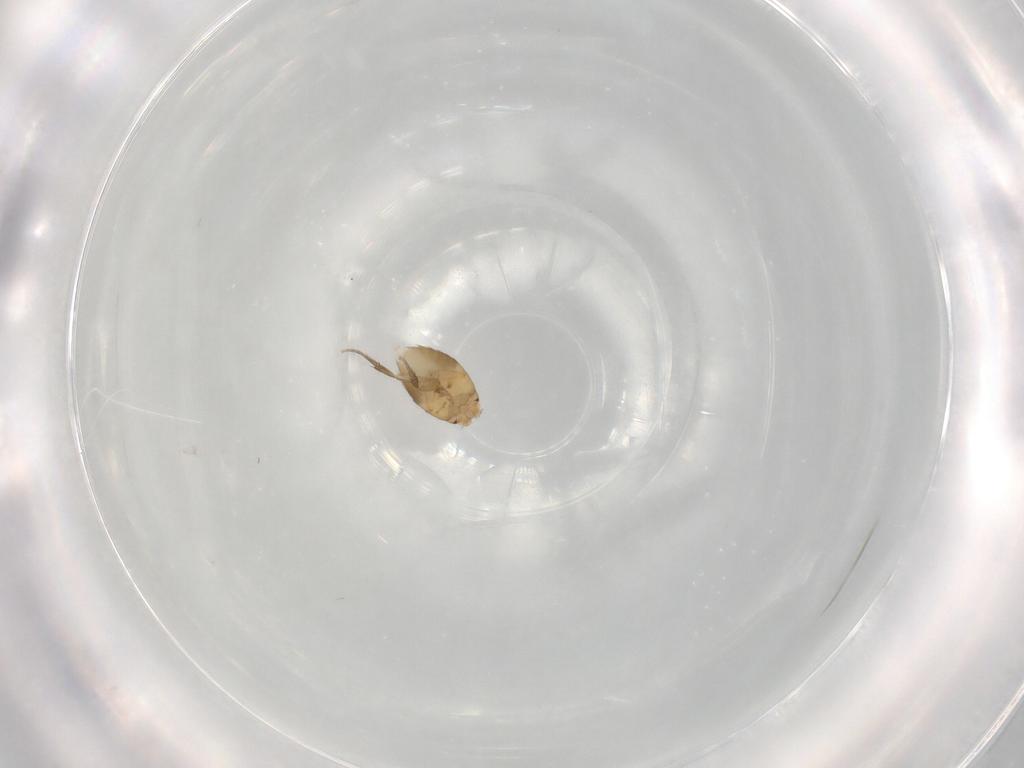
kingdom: Animalia
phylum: Arthropoda
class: Insecta
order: Diptera
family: Phoridae
